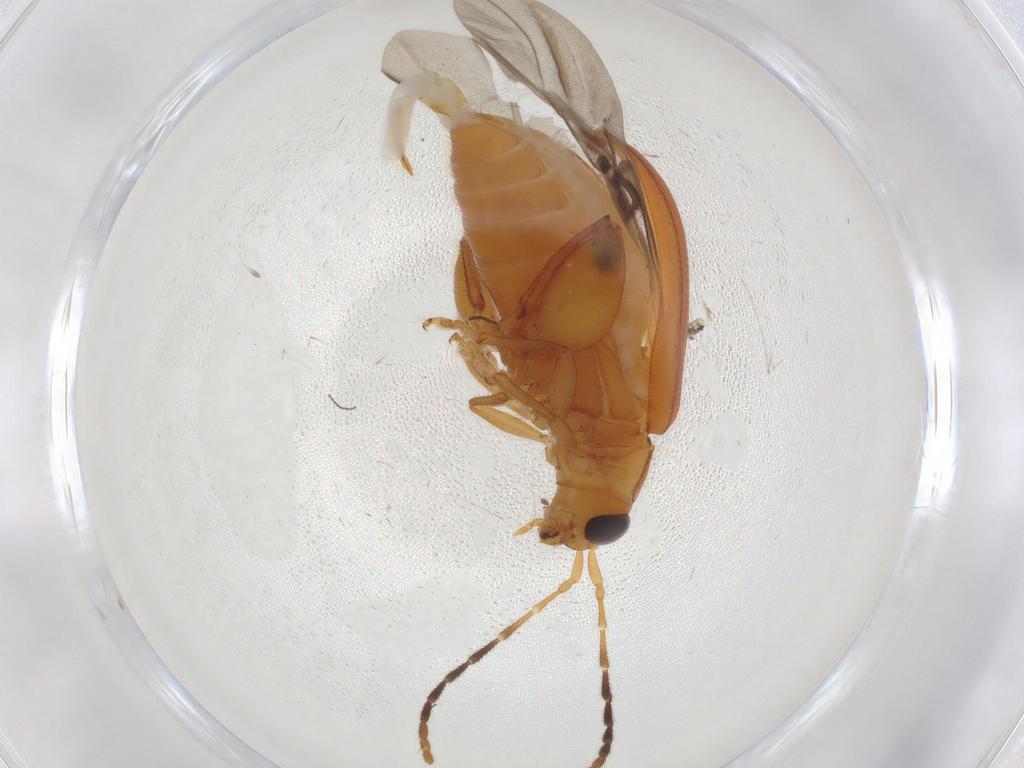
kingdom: Animalia
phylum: Arthropoda
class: Insecta
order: Coleoptera
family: Chrysomelidae
